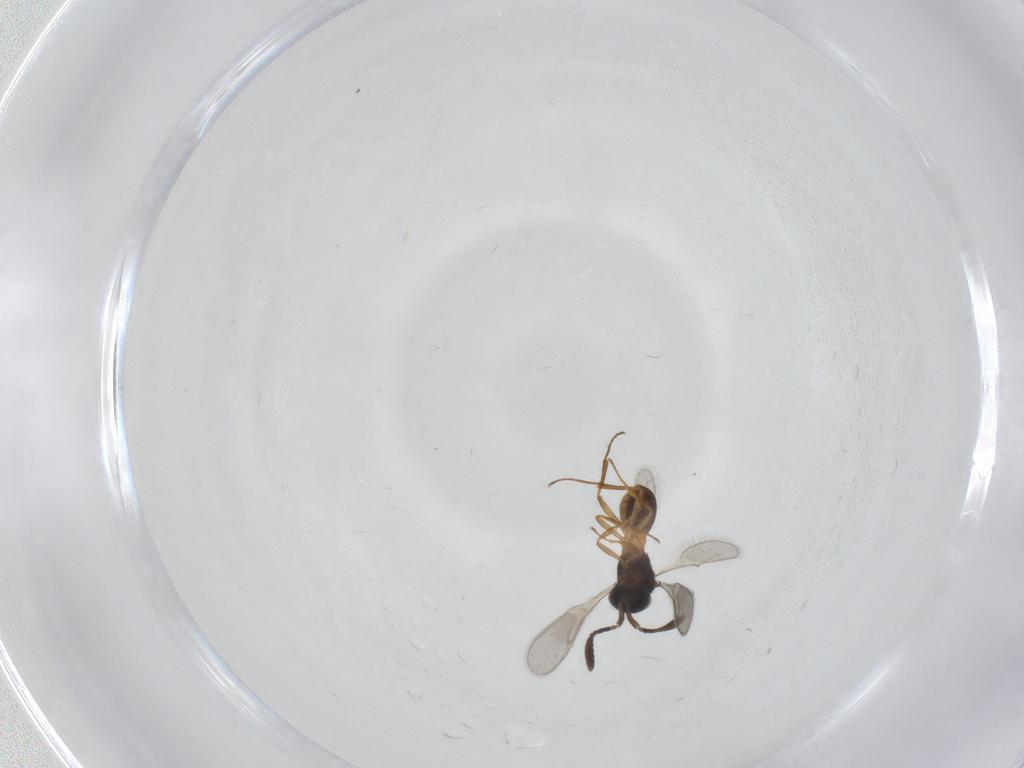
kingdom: Animalia
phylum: Arthropoda
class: Insecta
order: Hymenoptera
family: Scelionidae
